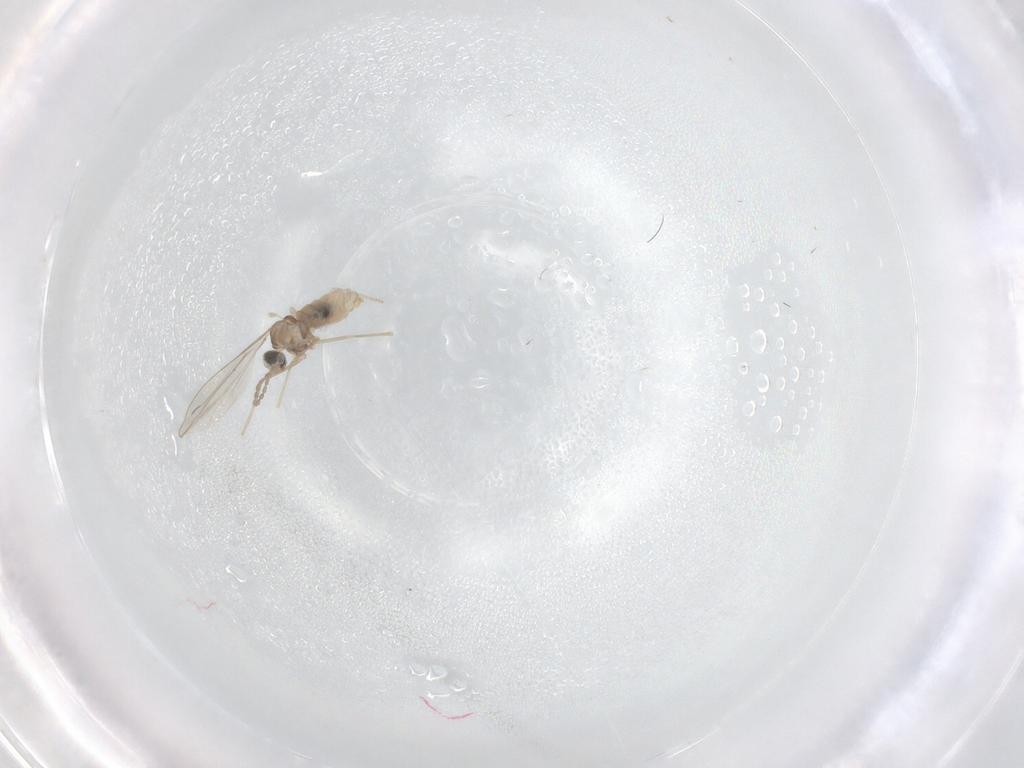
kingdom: Animalia
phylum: Arthropoda
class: Insecta
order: Diptera
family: Cecidomyiidae
